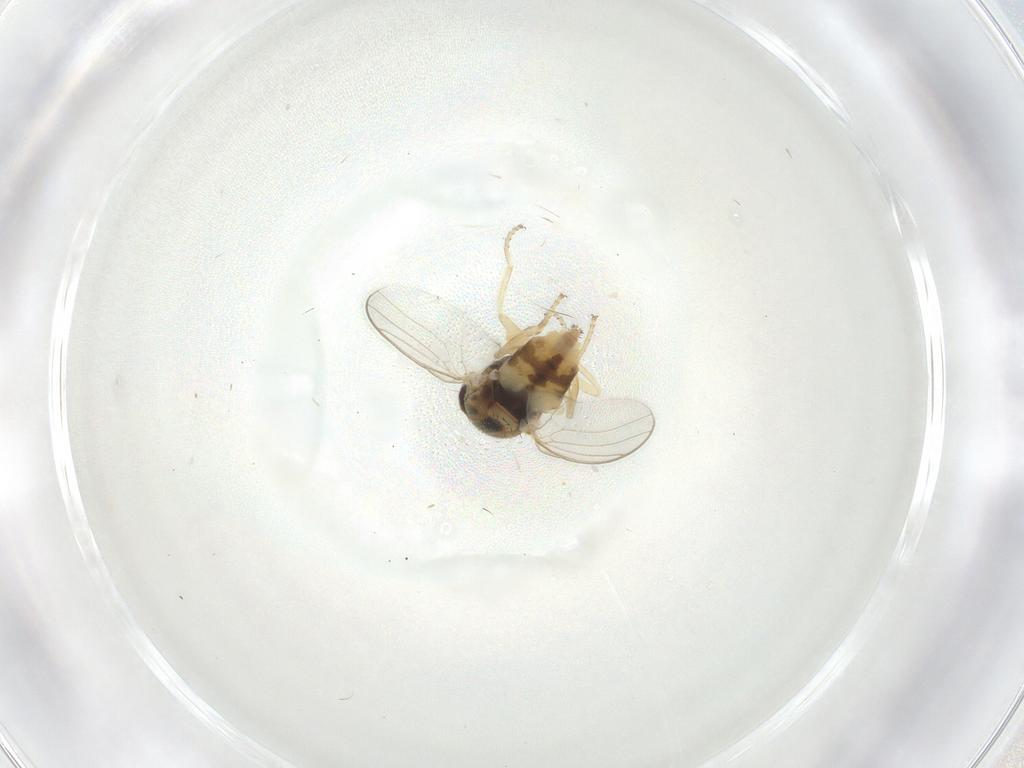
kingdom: Animalia
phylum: Arthropoda
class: Insecta
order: Diptera
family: Chloropidae
